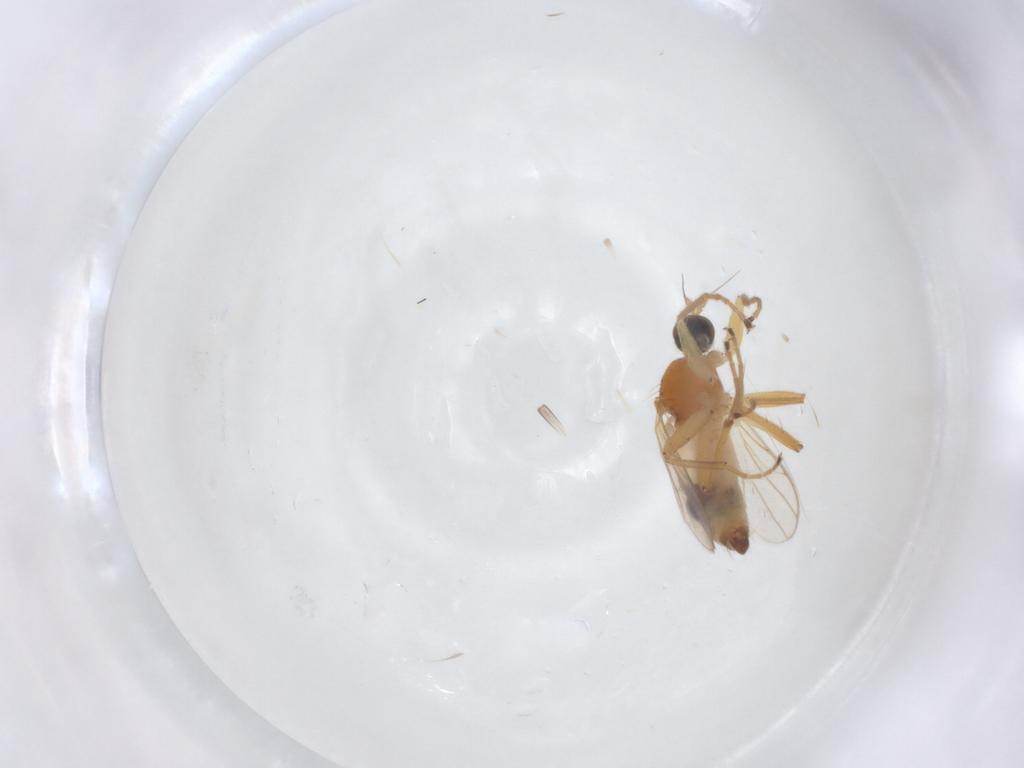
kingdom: Animalia
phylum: Arthropoda
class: Insecta
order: Diptera
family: Hybotidae
